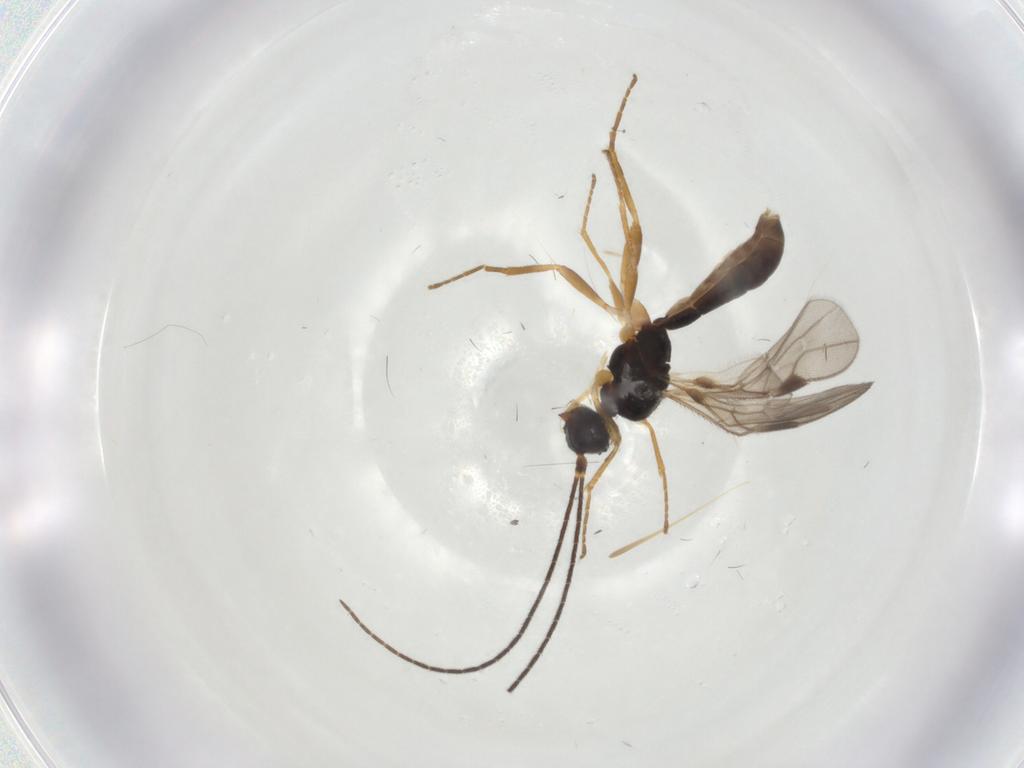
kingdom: Animalia
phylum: Arthropoda
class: Insecta
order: Hymenoptera
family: Braconidae
